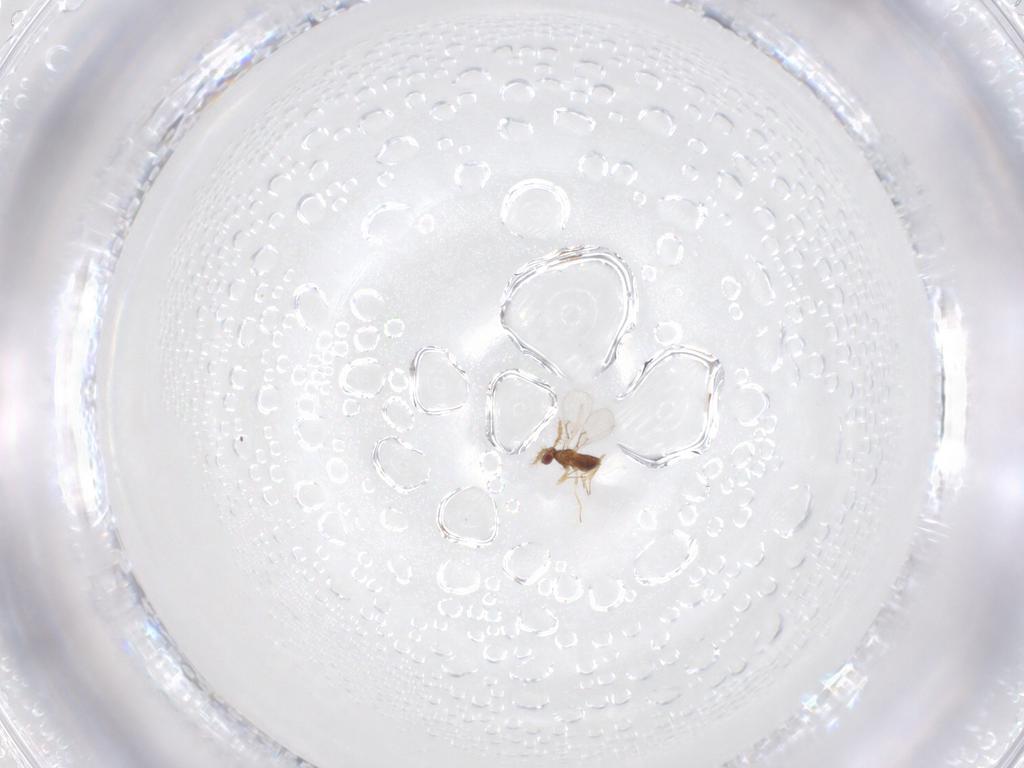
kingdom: Animalia
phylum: Arthropoda
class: Insecta
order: Hymenoptera
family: Trichogrammatidae
